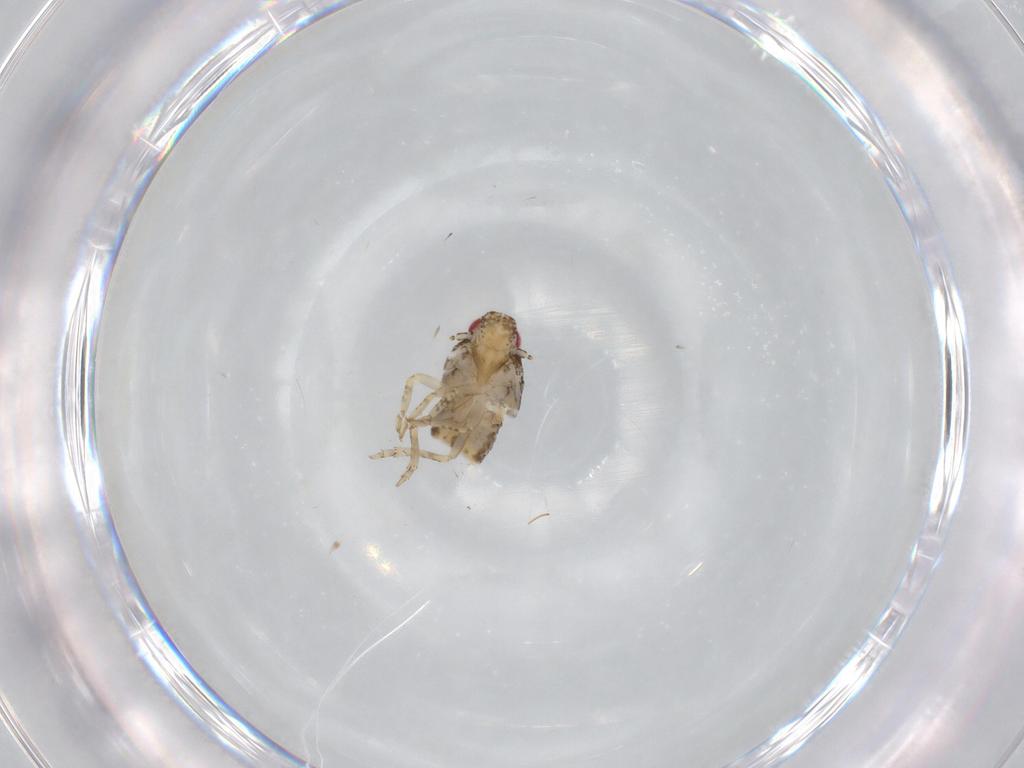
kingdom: Animalia
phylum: Arthropoda
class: Insecta
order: Hemiptera
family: Flatidae
